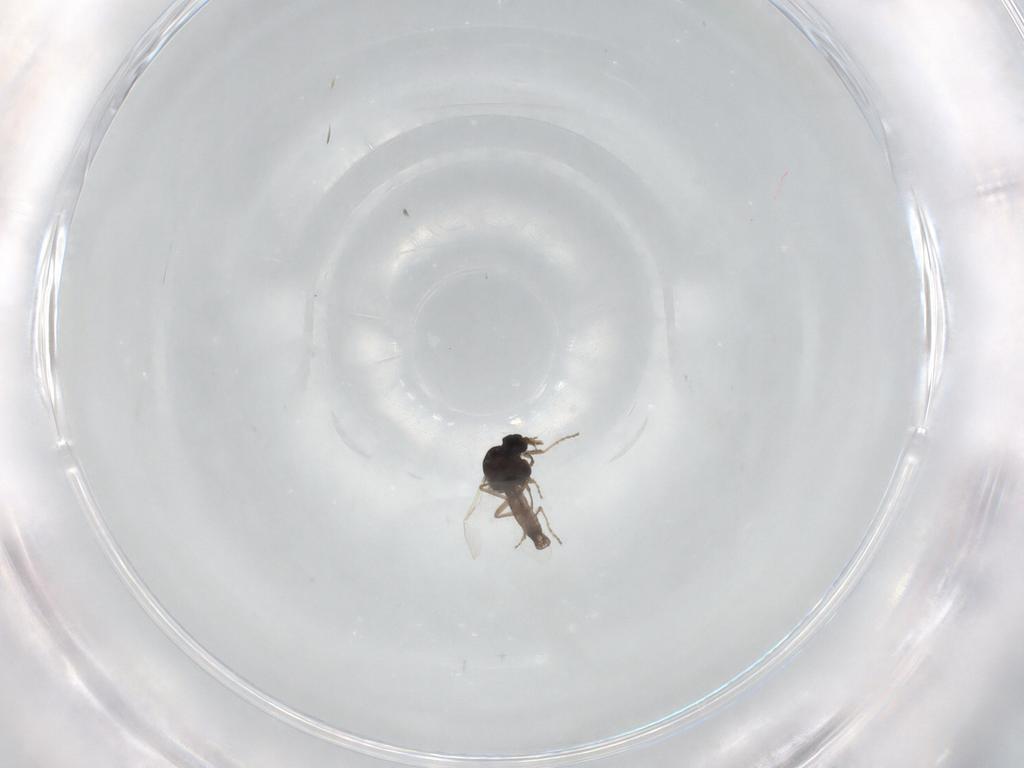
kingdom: Animalia
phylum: Arthropoda
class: Insecta
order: Diptera
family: Ceratopogonidae
